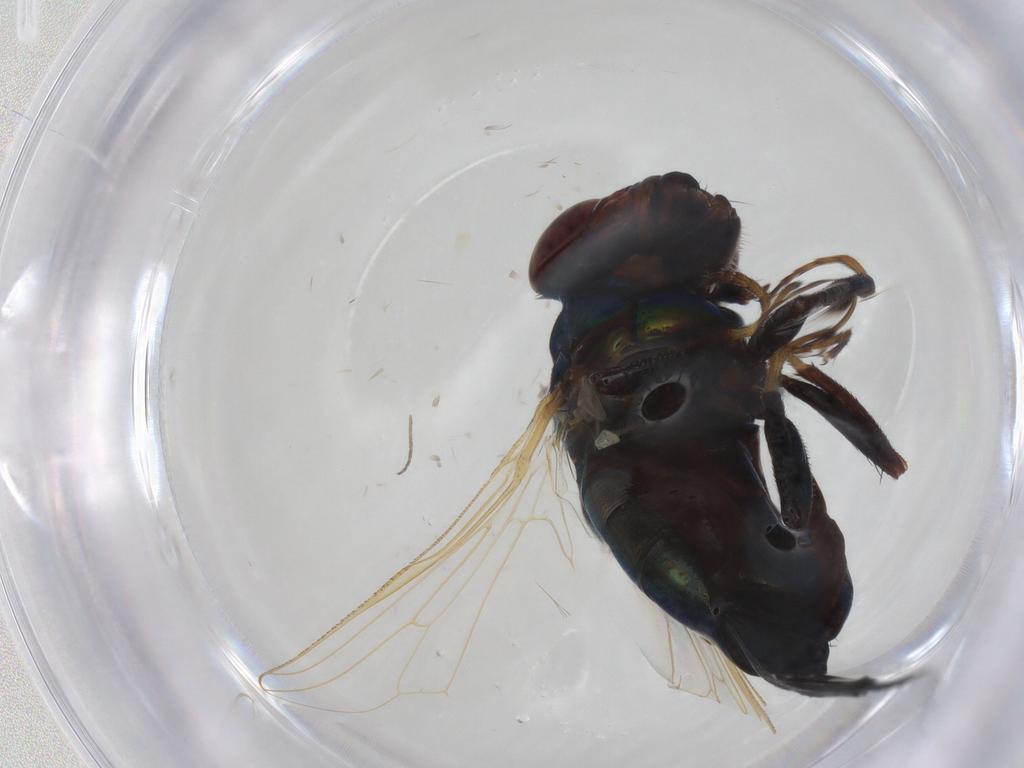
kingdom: Animalia
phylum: Arthropoda
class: Insecta
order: Diptera
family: Ulidiidae
